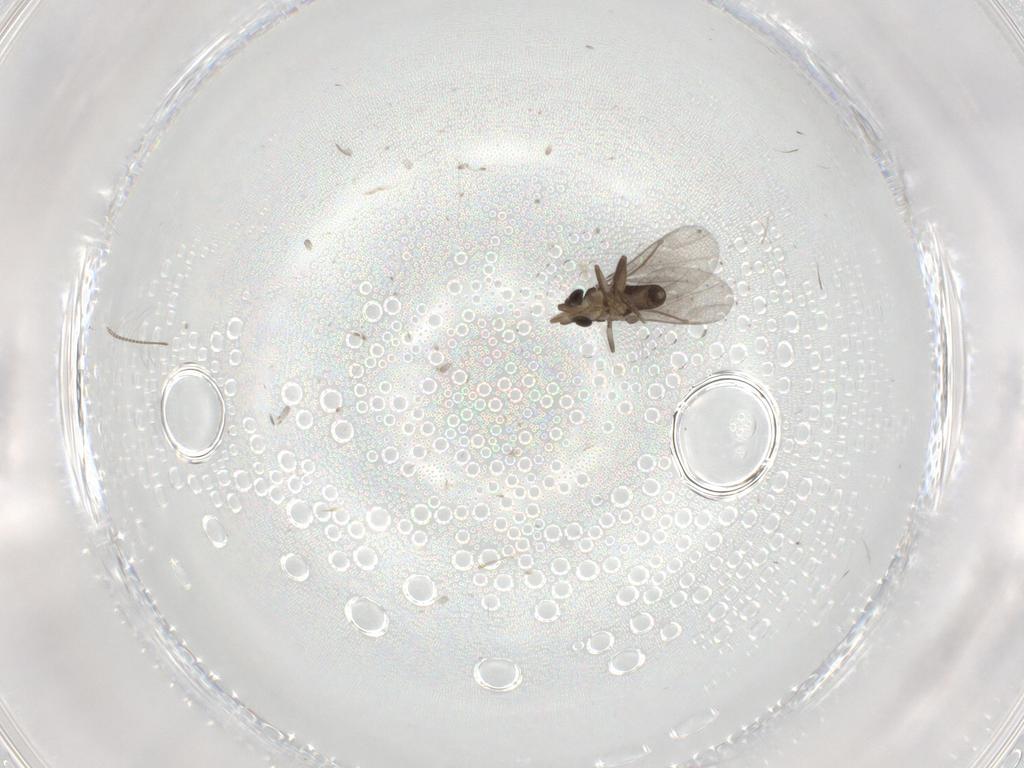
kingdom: Animalia
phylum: Arthropoda
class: Insecta
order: Diptera
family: Cecidomyiidae
